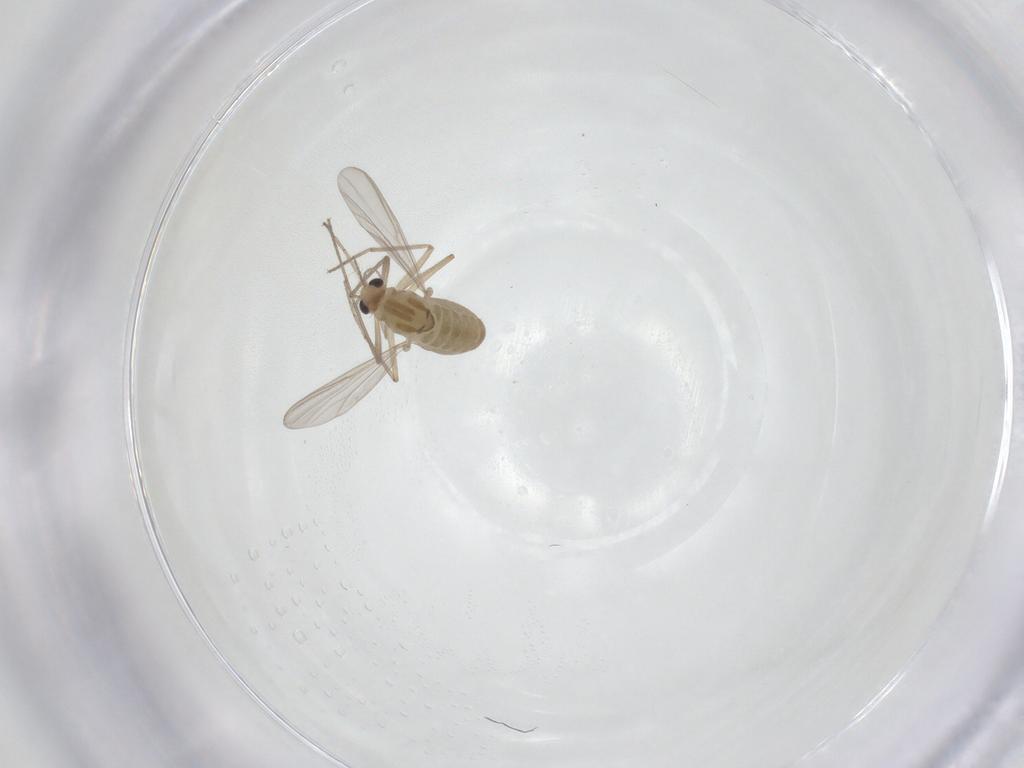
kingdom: Animalia
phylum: Arthropoda
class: Insecta
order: Diptera
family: Chironomidae
